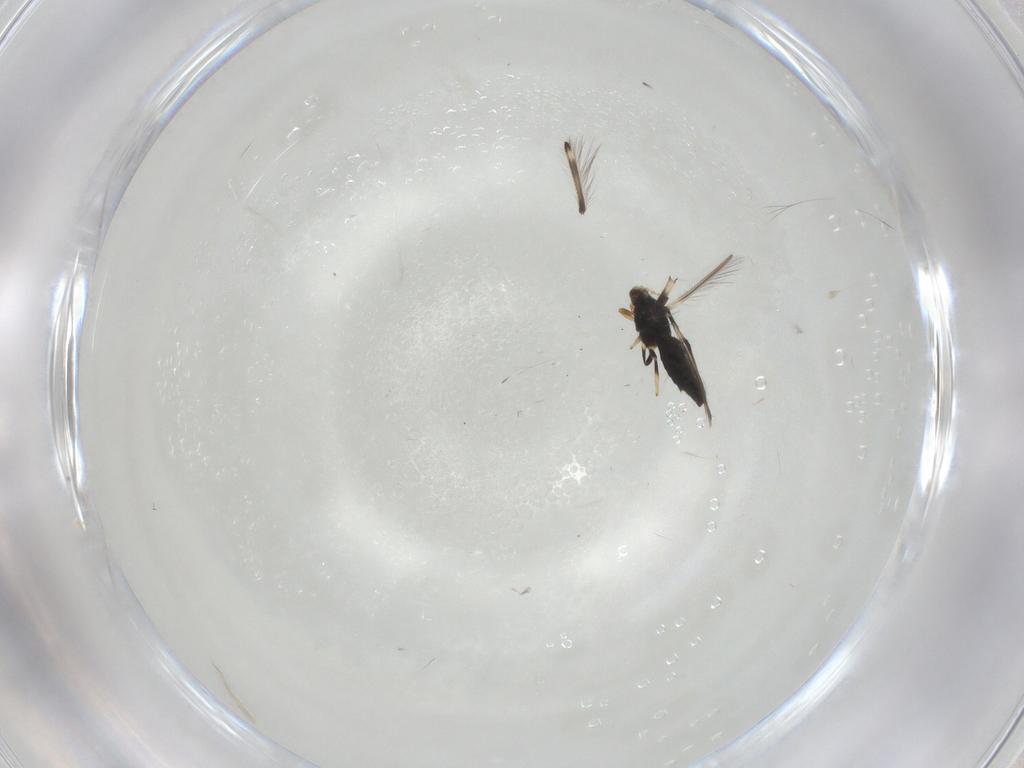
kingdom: Animalia
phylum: Arthropoda
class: Insecta
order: Thysanoptera
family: Thripidae
